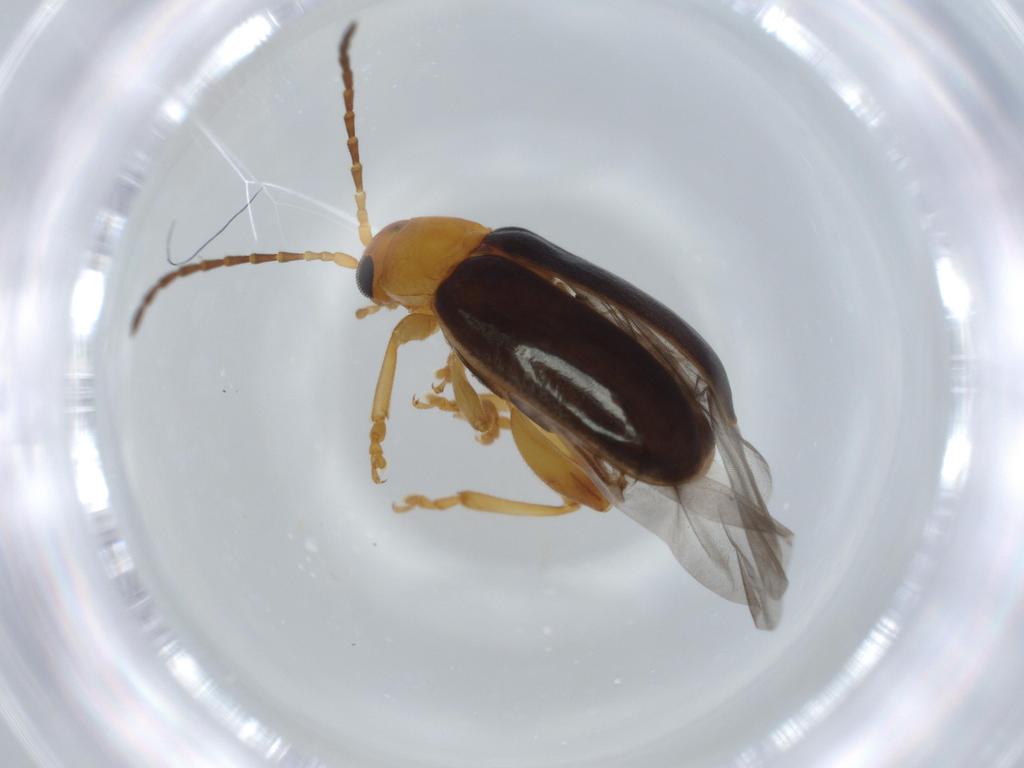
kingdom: Animalia
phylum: Arthropoda
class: Insecta
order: Coleoptera
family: Chrysomelidae
